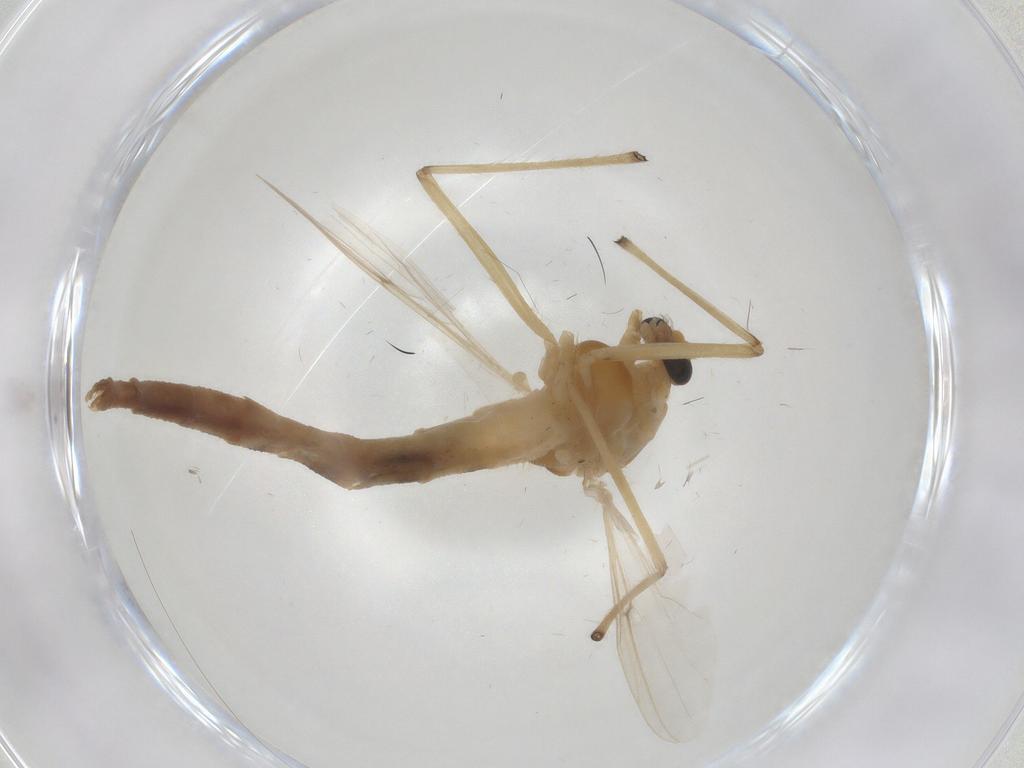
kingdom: Animalia
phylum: Arthropoda
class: Insecta
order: Diptera
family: Chironomidae
